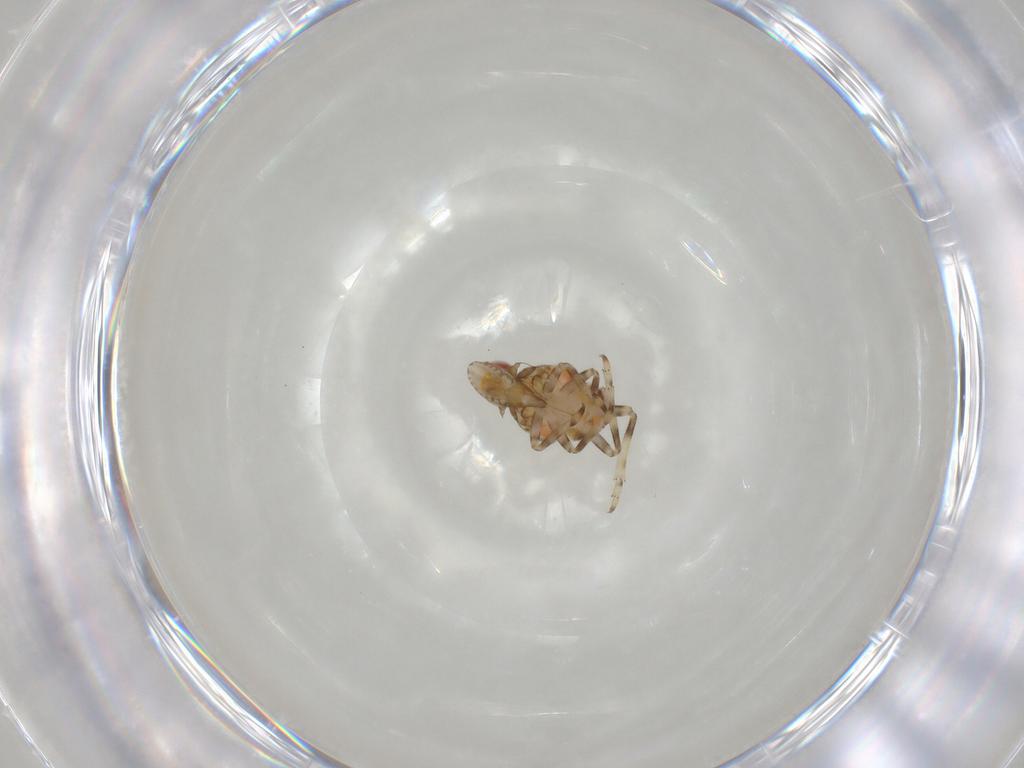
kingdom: Animalia
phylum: Arthropoda
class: Insecta
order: Hemiptera
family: Tropiduchidae
